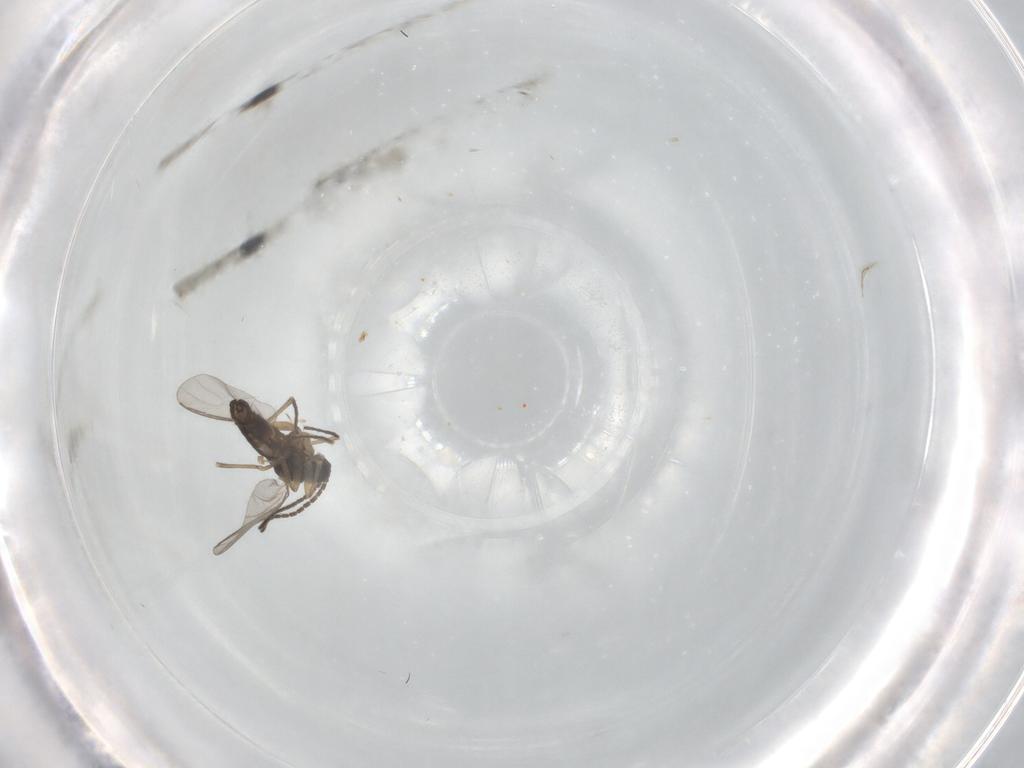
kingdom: Animalia
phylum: Arthropoda
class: Insecta
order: Diptera
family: Sciaridae
